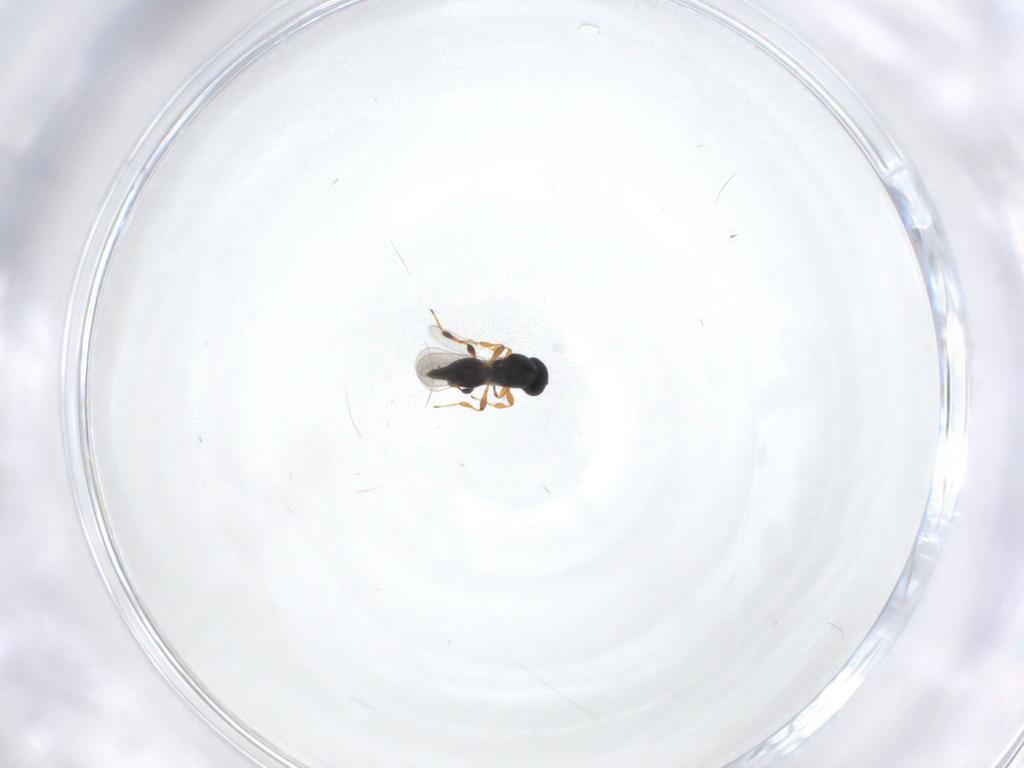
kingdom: Animalia
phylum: Arthropoda
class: Insecta
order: Hymenoptera
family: Platygastridae
